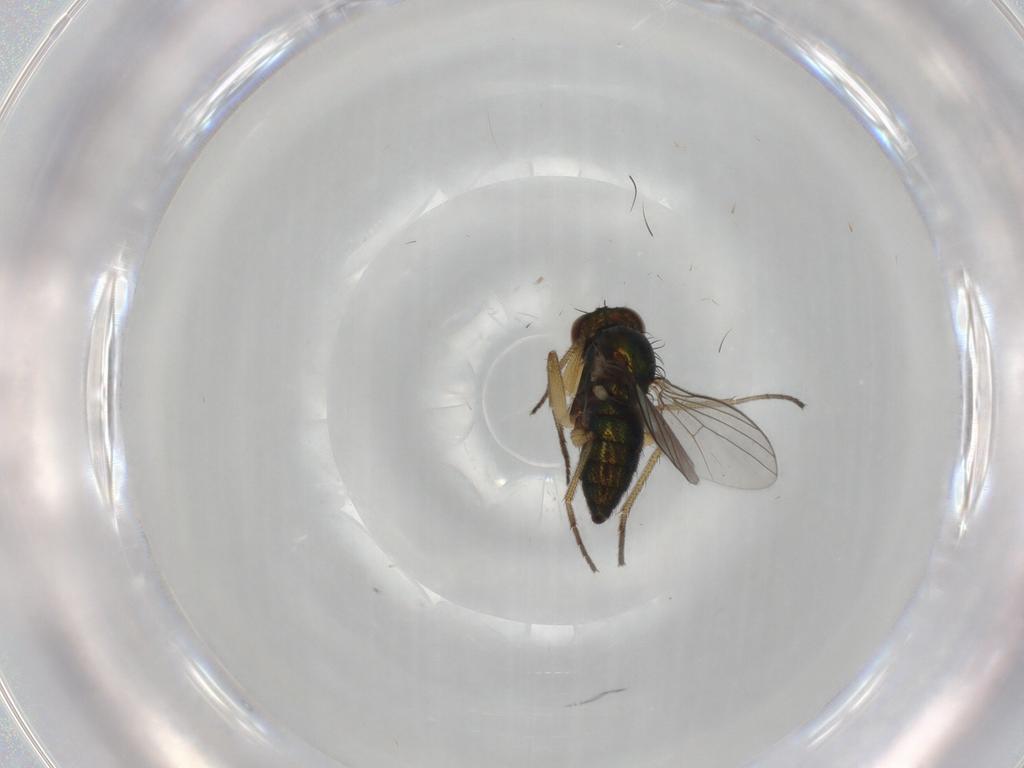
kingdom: Animalia
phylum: Arthropoda
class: Insecta
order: Diptera
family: Dolichopodidae
